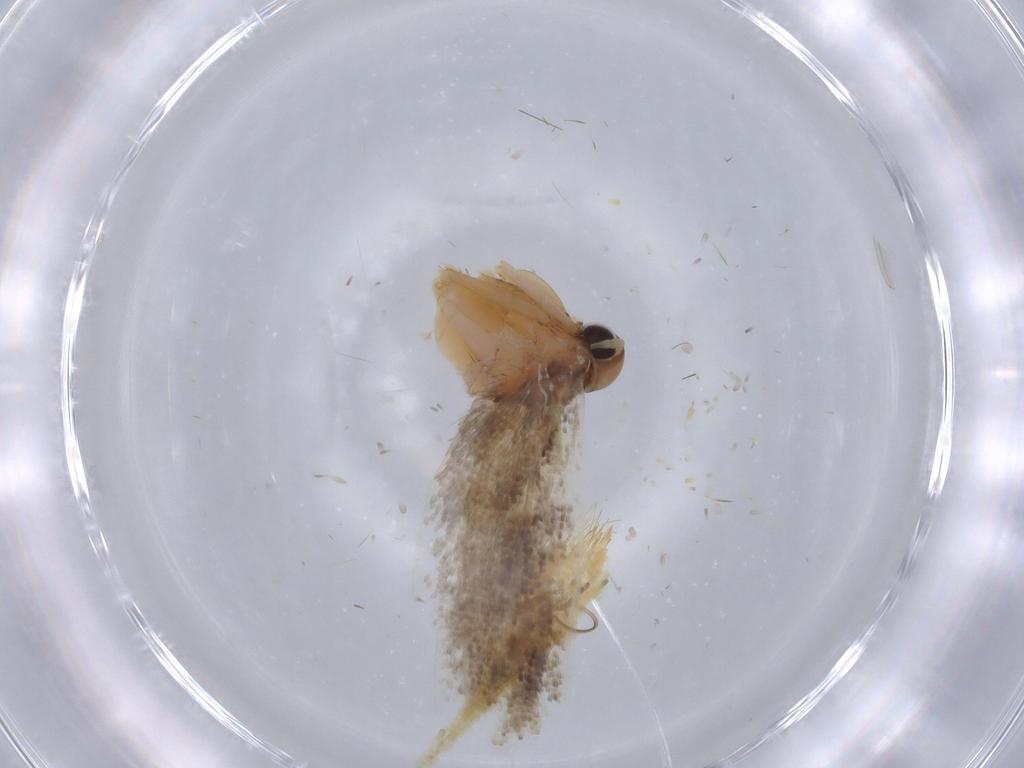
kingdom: Animalia
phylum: Arthropoda
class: Insecta
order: Lepidoptera
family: Gelechiidae
